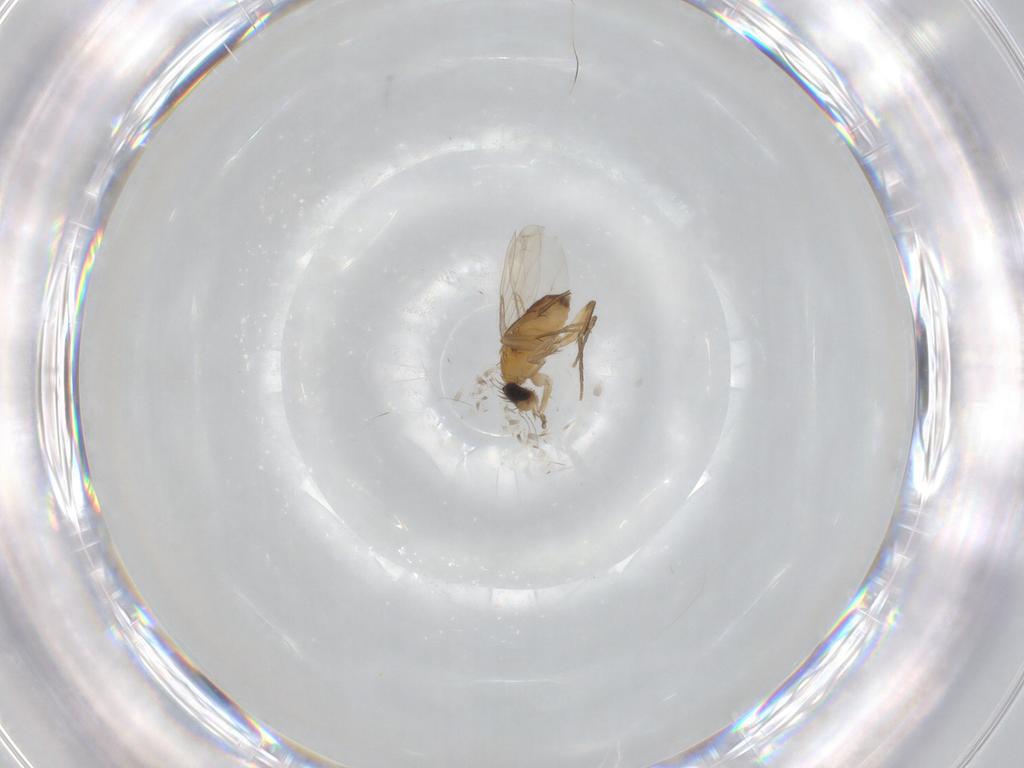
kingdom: Animalia
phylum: Arthropoda
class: Insecta
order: Diptera
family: Phoridae
